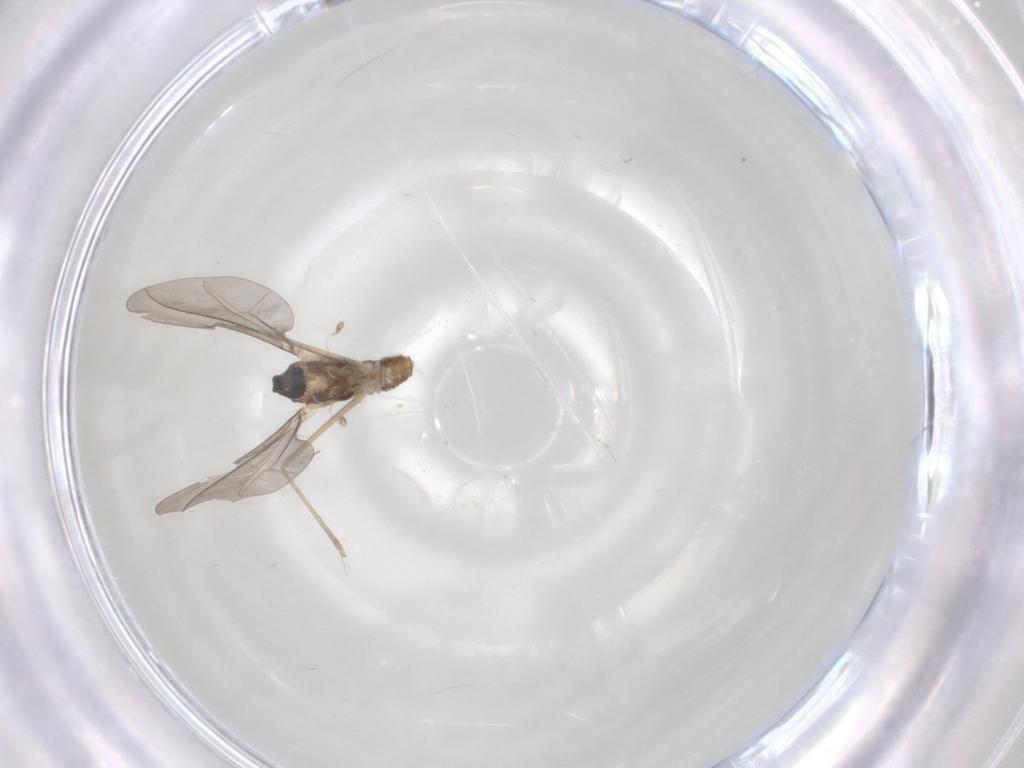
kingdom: Animalia
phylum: Arthropoda
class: Insecta
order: Diptera
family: Cecidomyiidae
